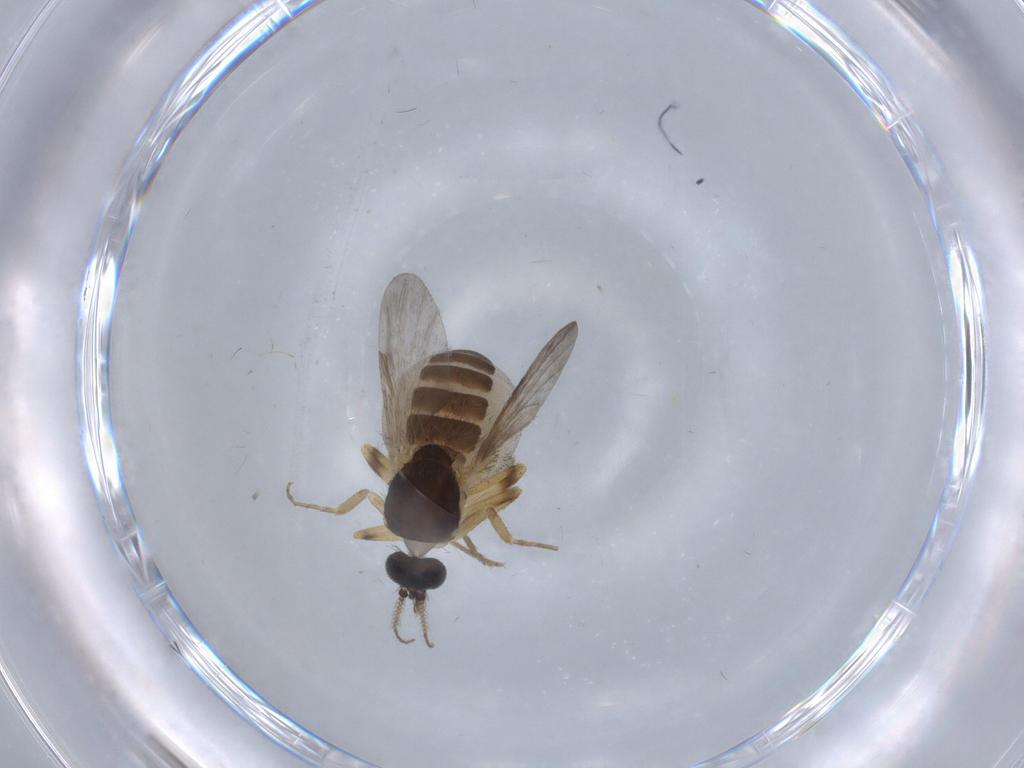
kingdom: Animalia
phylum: Arthropoda
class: Insecta
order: Diptera
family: Ceratopogonidae
